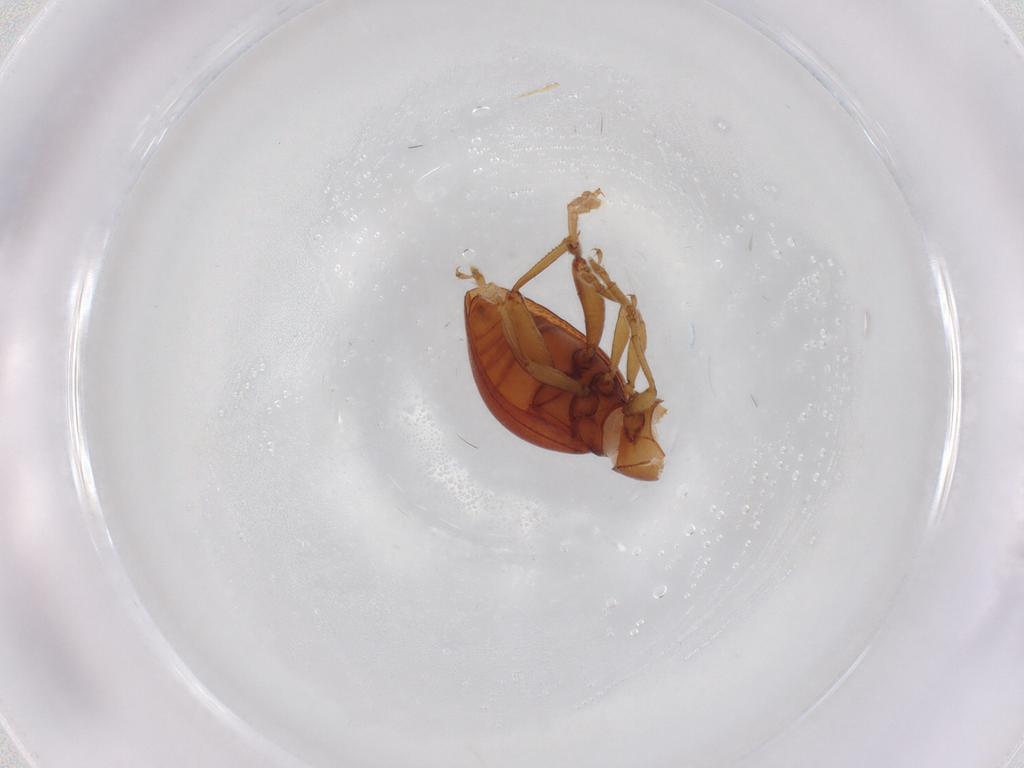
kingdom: Animalia
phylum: Arthropoda
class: Insecta
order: Coleoptera
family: Chrysomelidae
